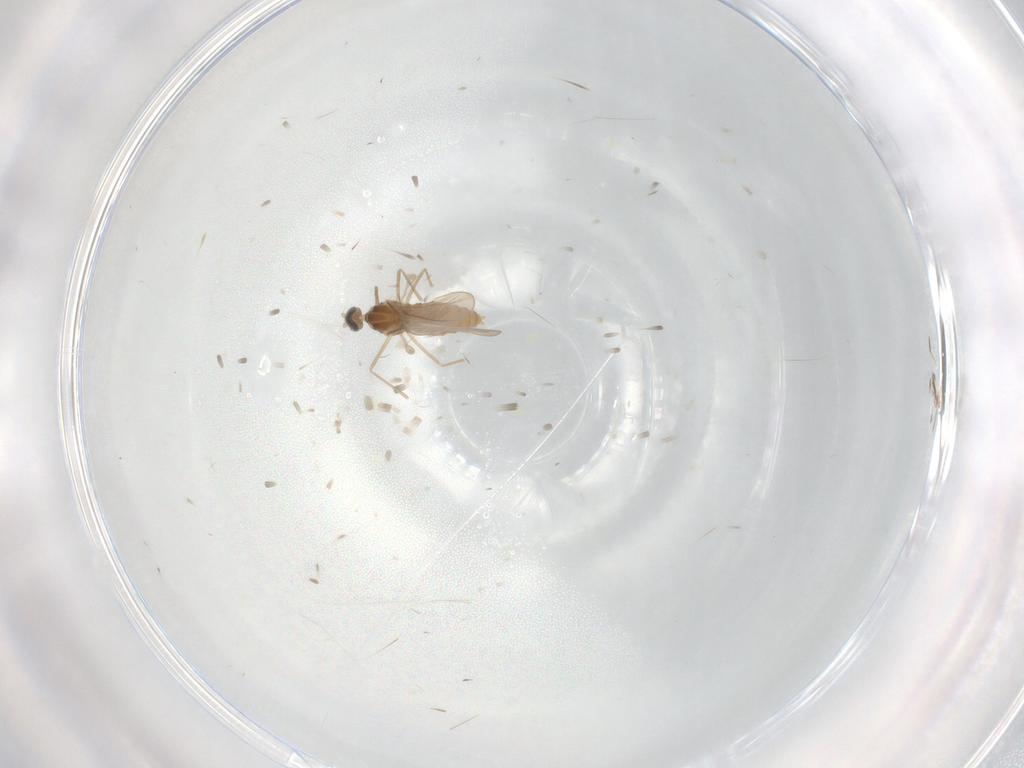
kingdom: Animalia
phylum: Arthropoda
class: Insecta
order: Diptera
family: Cecidomyiidae
